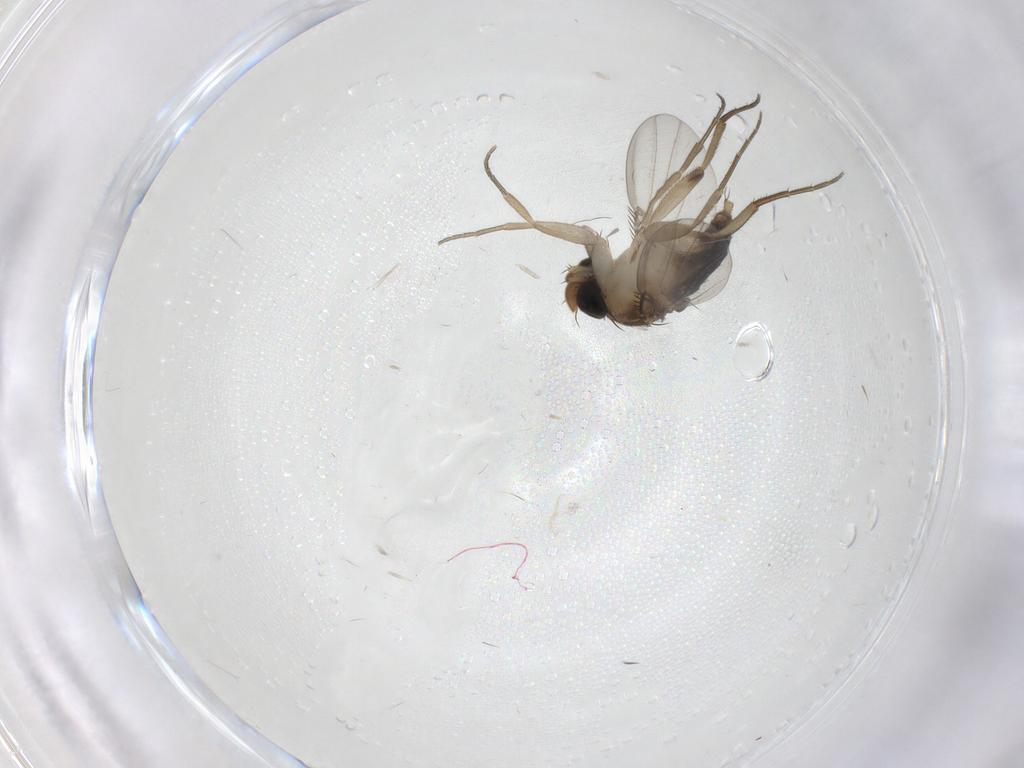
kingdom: Animalia
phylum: Arthropoda
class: Insecta
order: Diptera
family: Phoridae
